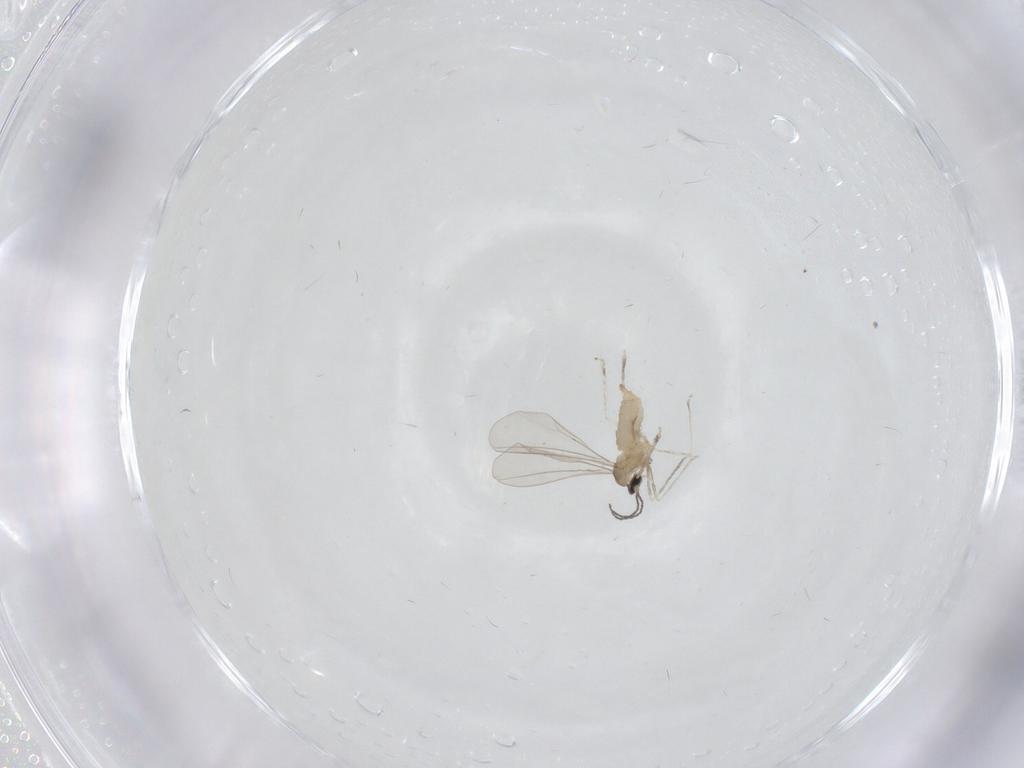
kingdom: Animalia
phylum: Arthropoda
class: Insecta
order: Diptera
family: Cecidomyiidae
